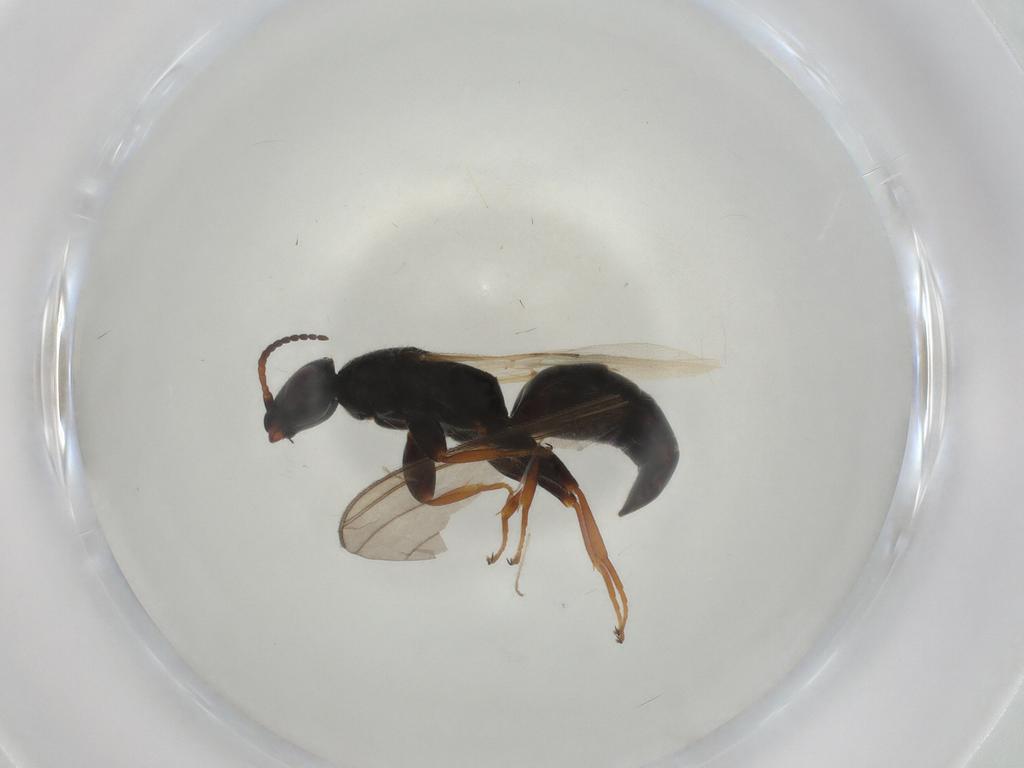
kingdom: Animalia
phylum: Arthropoda
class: Insecta
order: Hymenoptera
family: Bethylidae
